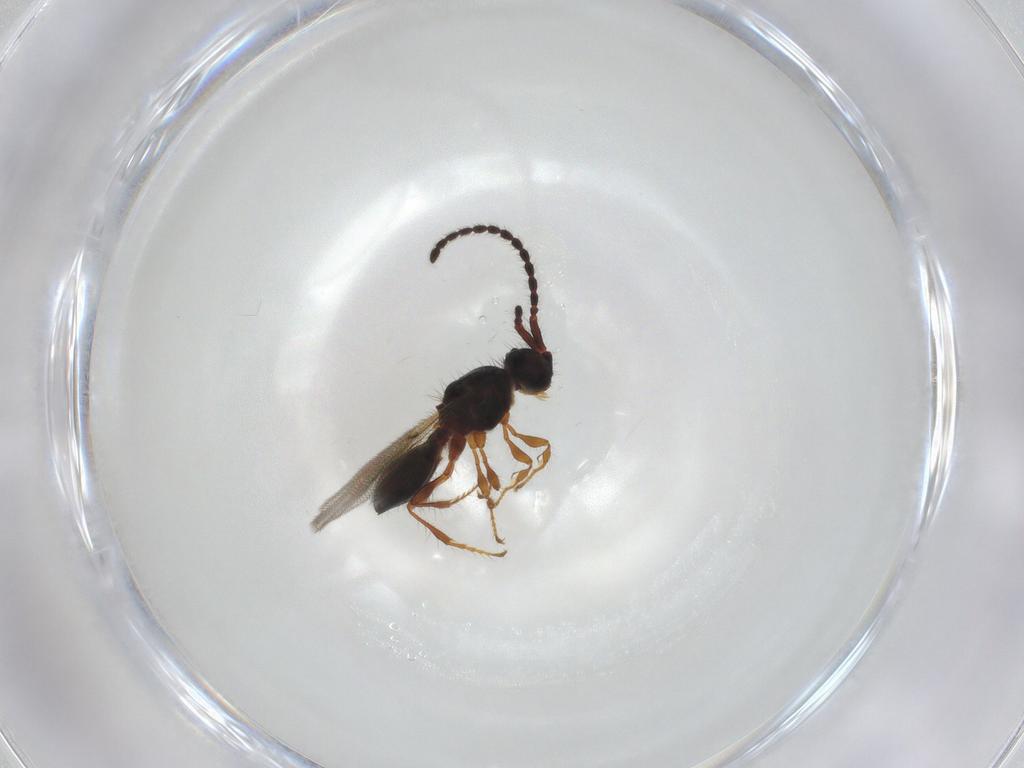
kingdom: Animalia
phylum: Arthropoda
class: Insecta
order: Hymenoptera
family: Diapriidae
